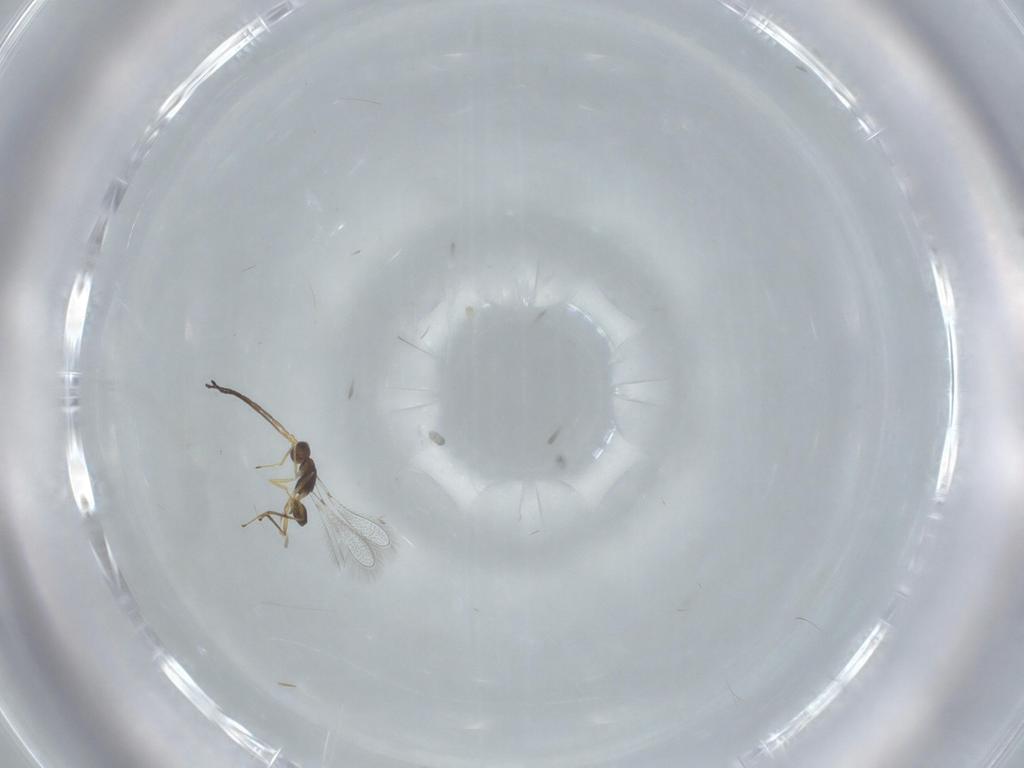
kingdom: Animalia
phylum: Arthropoda
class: Insecta
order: Hymenoptera
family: Mymaridae
